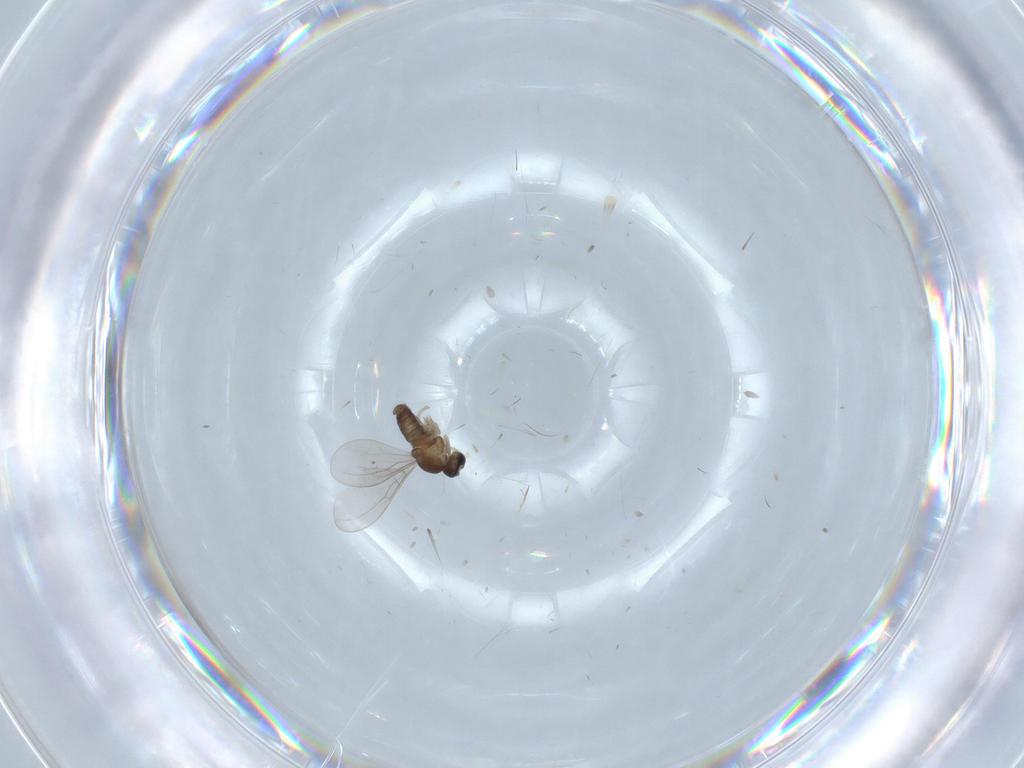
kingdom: Animalia
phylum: Arthropoda
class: Insecta
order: Diptera
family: Cecidomyiidae
